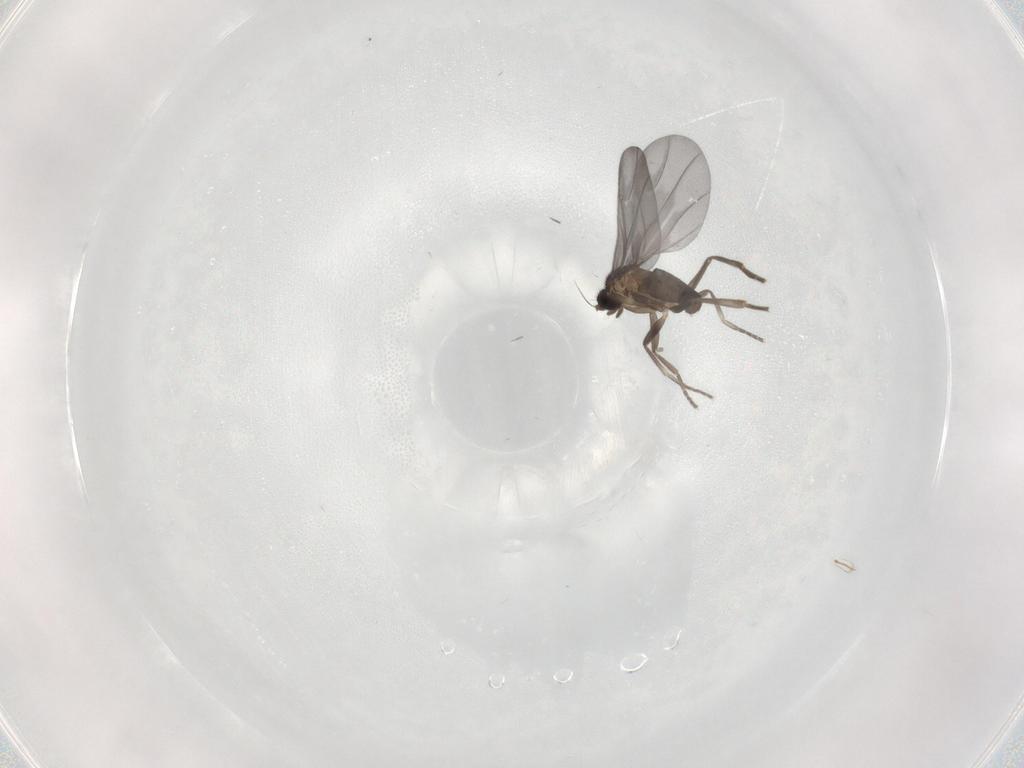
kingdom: Animalia
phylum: Arthropoda
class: Insecta
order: Diptera
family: Phoridae
